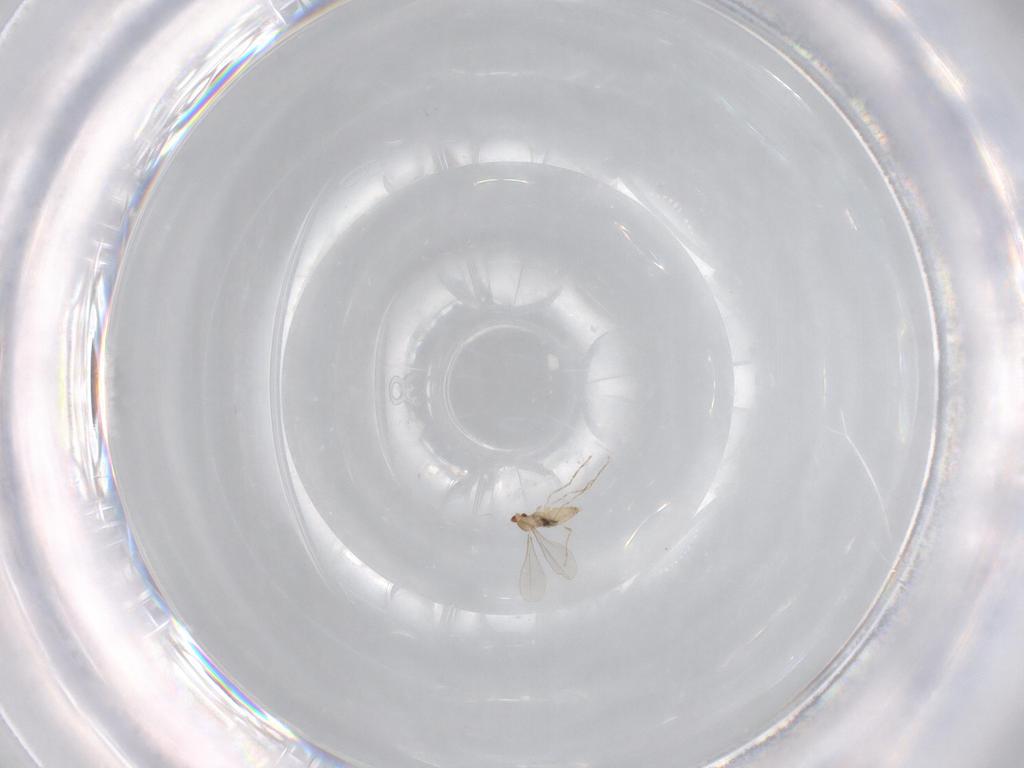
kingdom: Animalia
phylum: Arthropoda
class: Insecta
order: Diptera
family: Cecidomyiidae
